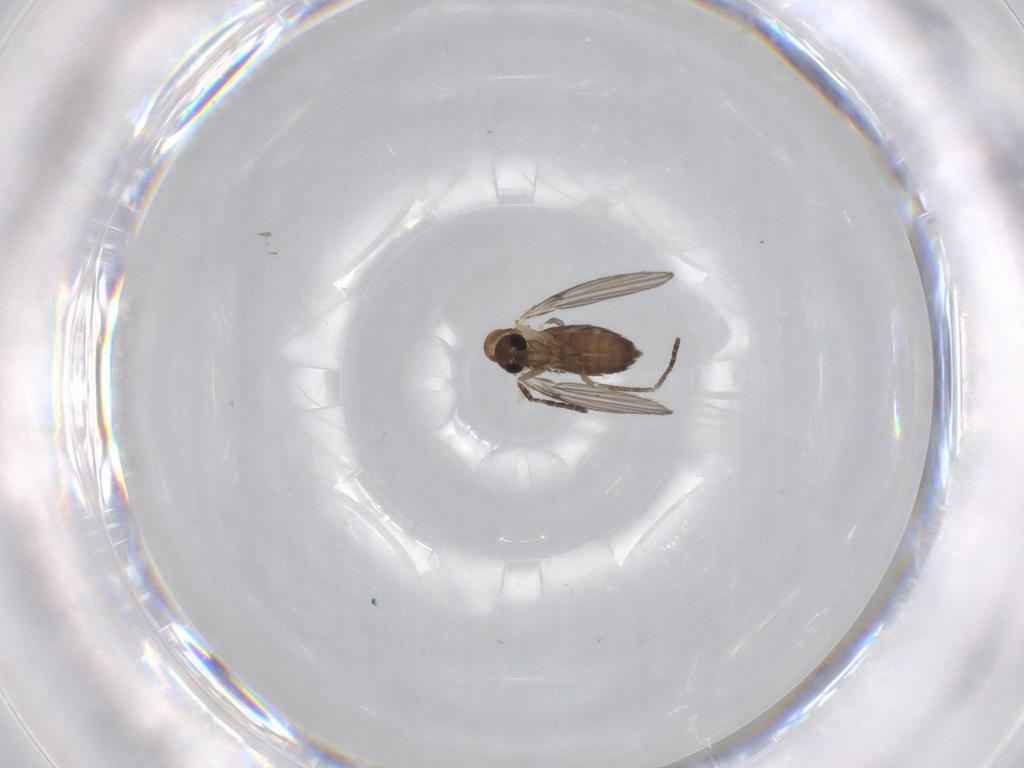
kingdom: Animalia
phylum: Arthropoda
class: Insecta
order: Diptera
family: Psychodidae
